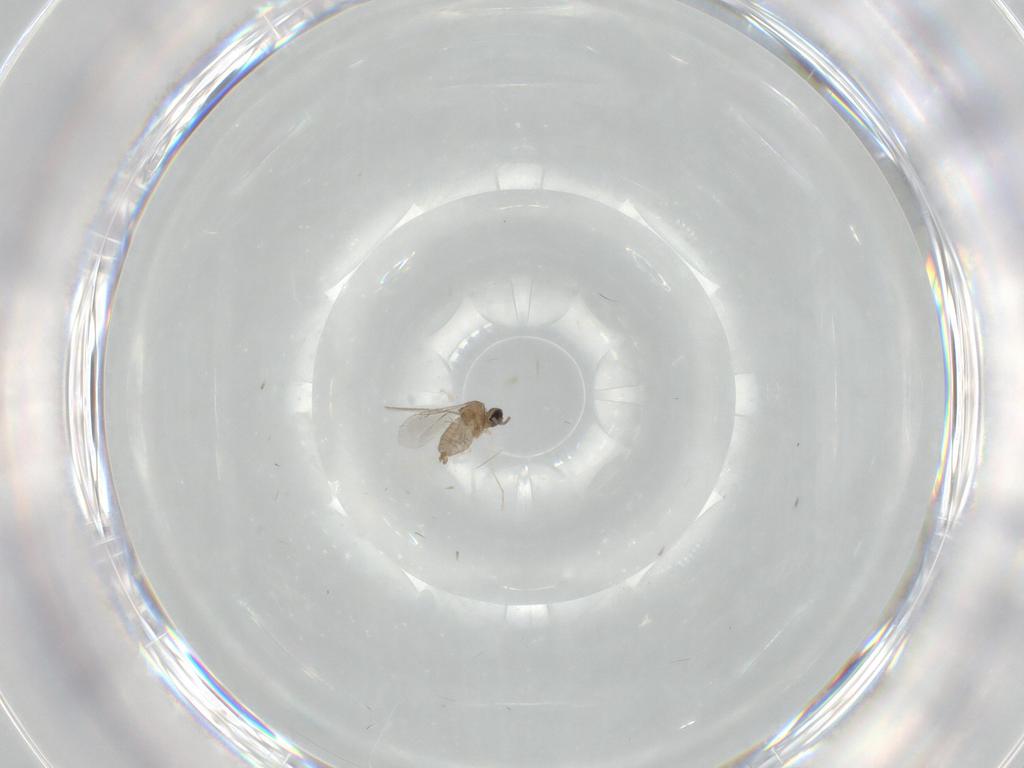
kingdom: Animalia
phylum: Arthropoda
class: Insecta
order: Diptera
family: Cecidomyiidae
